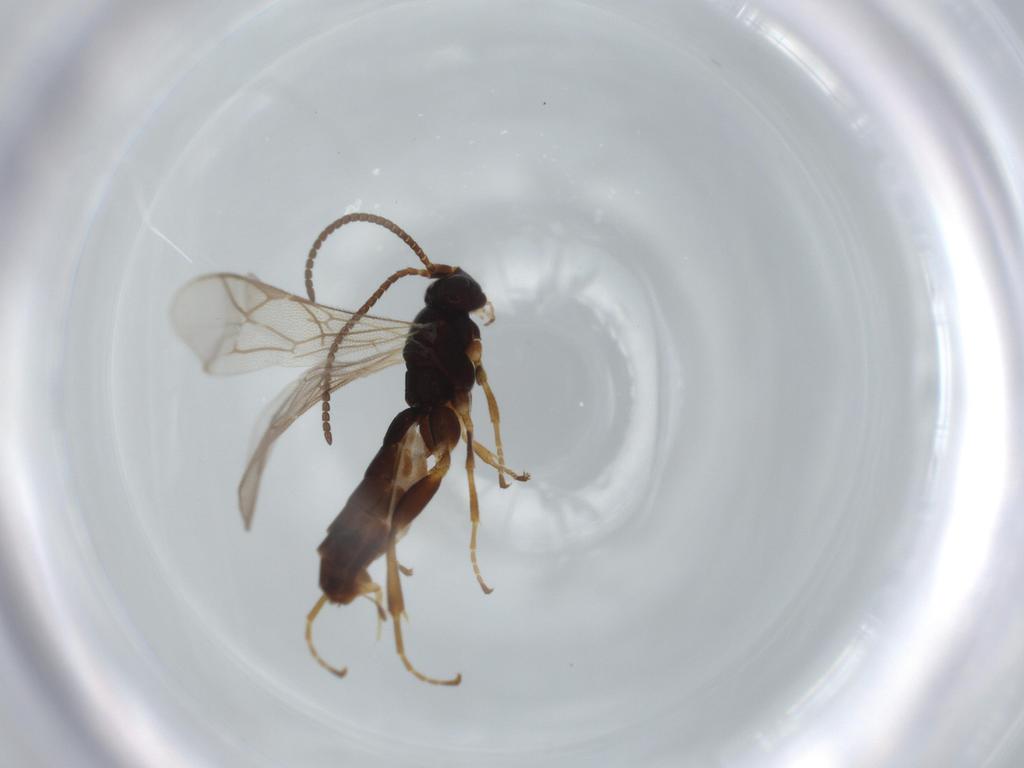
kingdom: Animalia
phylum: Arthropoda
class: Insecta
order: Hymenoptera
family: Ichneumonidae
